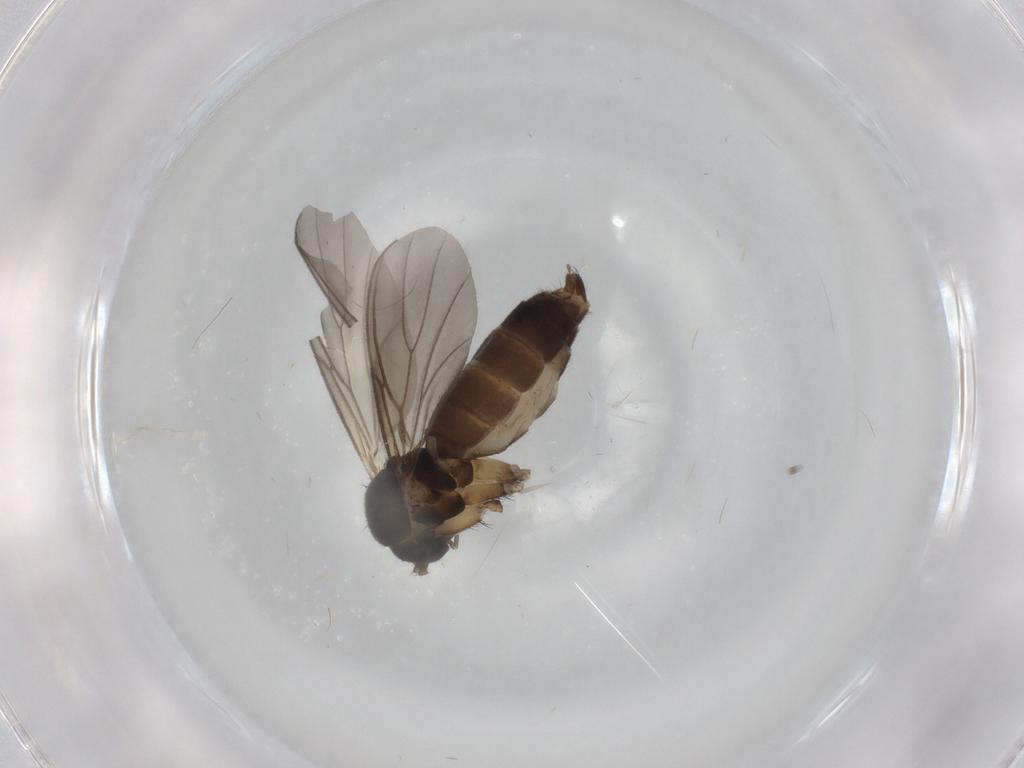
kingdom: Animalia
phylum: Arthropoda
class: Insecta
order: Diptera
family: Mycetophilidae
